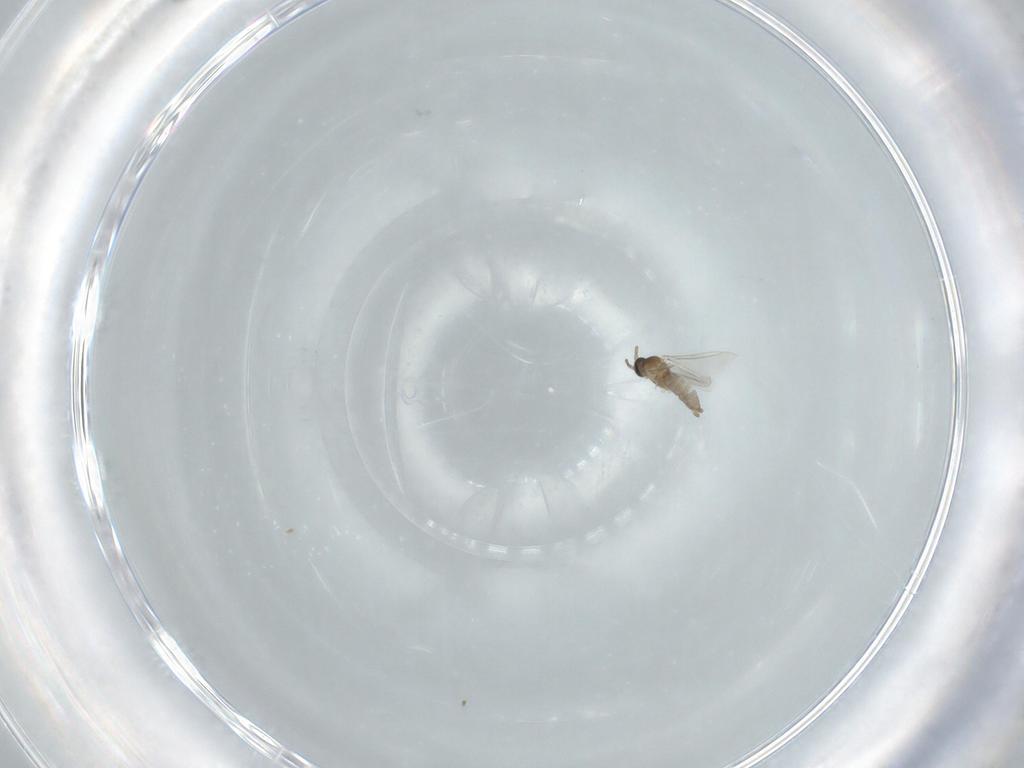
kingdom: Animalia
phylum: Arthropoda
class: Insecta
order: Diptera
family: Cecidomyiidae
